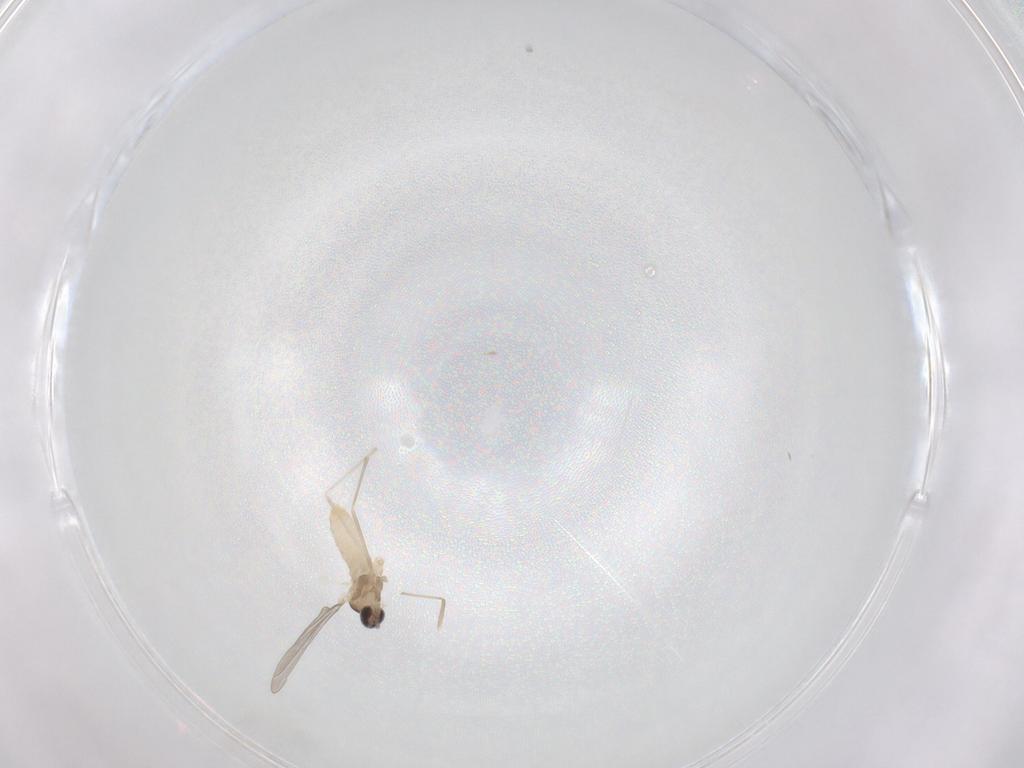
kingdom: Animalia
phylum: Arthropoda
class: Insecta
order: Diptera
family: Cecidomyiidae
